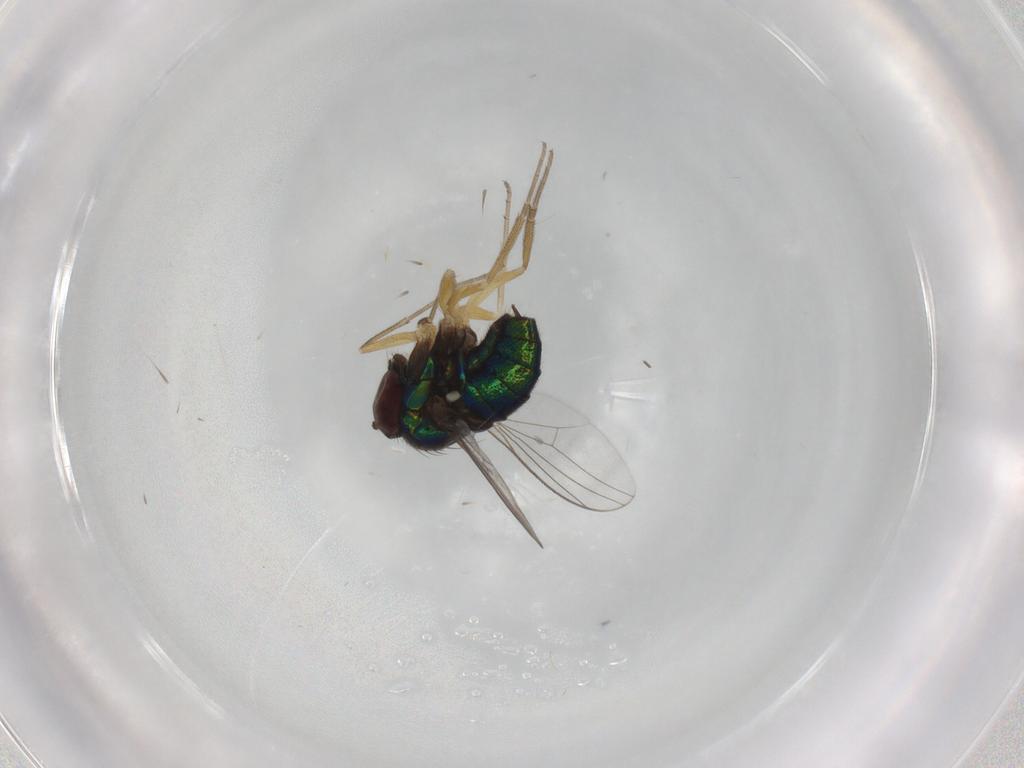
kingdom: Animalia
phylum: Arthropoda
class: Insecta
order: Diptera
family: Dolichopodidae
